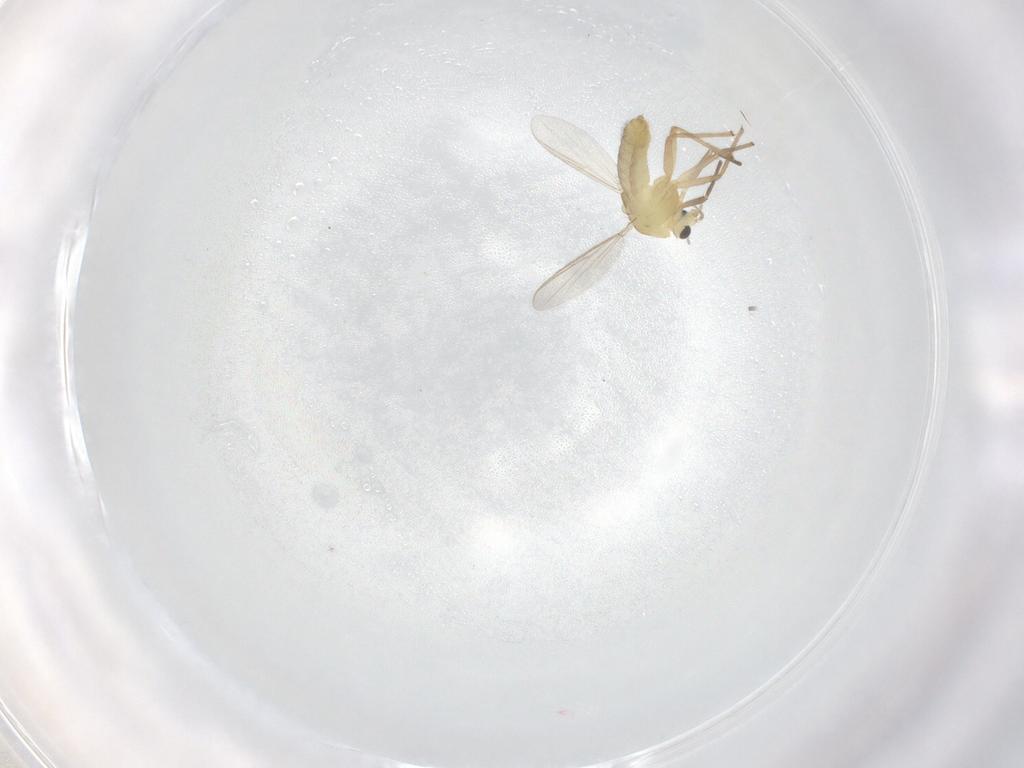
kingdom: Animalia
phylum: Arthropoda
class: Insecta
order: Diptera
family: Chironomidae
